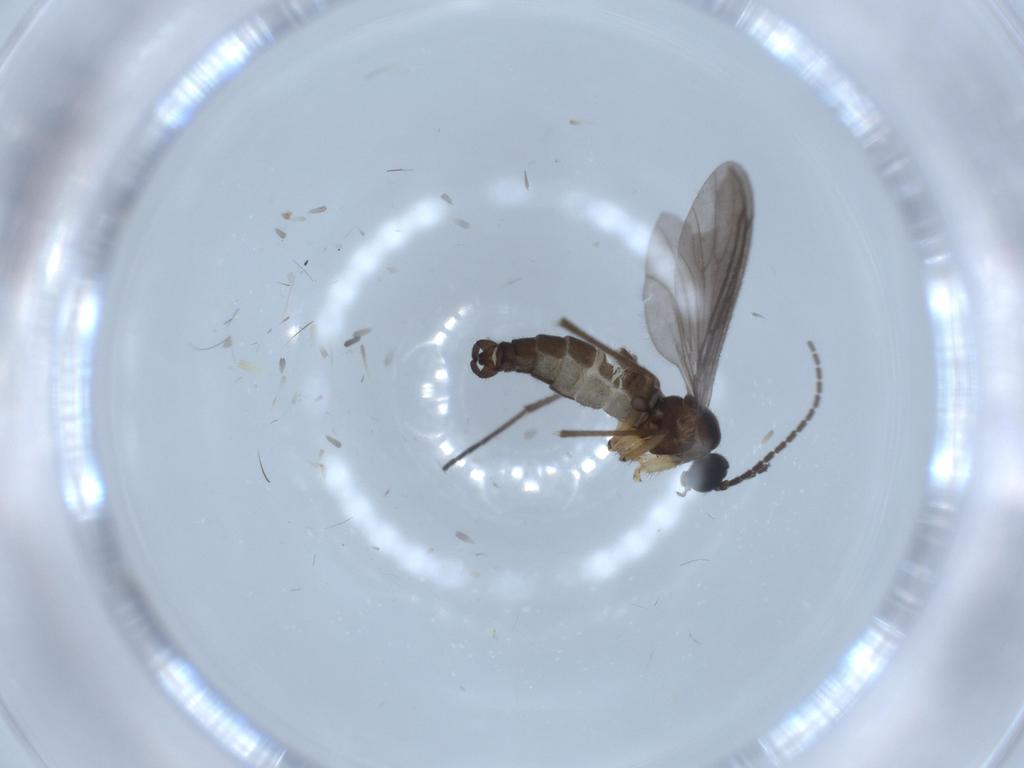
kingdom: Animalia
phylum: Arthropoda
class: Insecta
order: Diptera
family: Sciaridae
